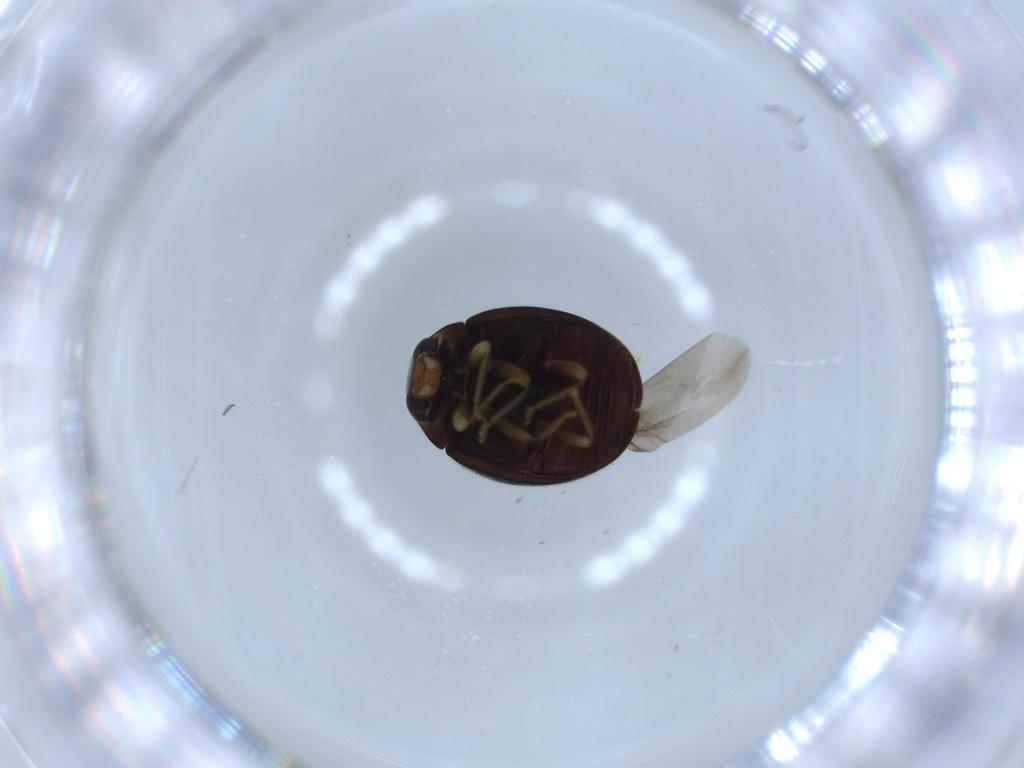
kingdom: Animalia
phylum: Arthropoda
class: Insecta
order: Coleoptera
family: Coccinellidae
